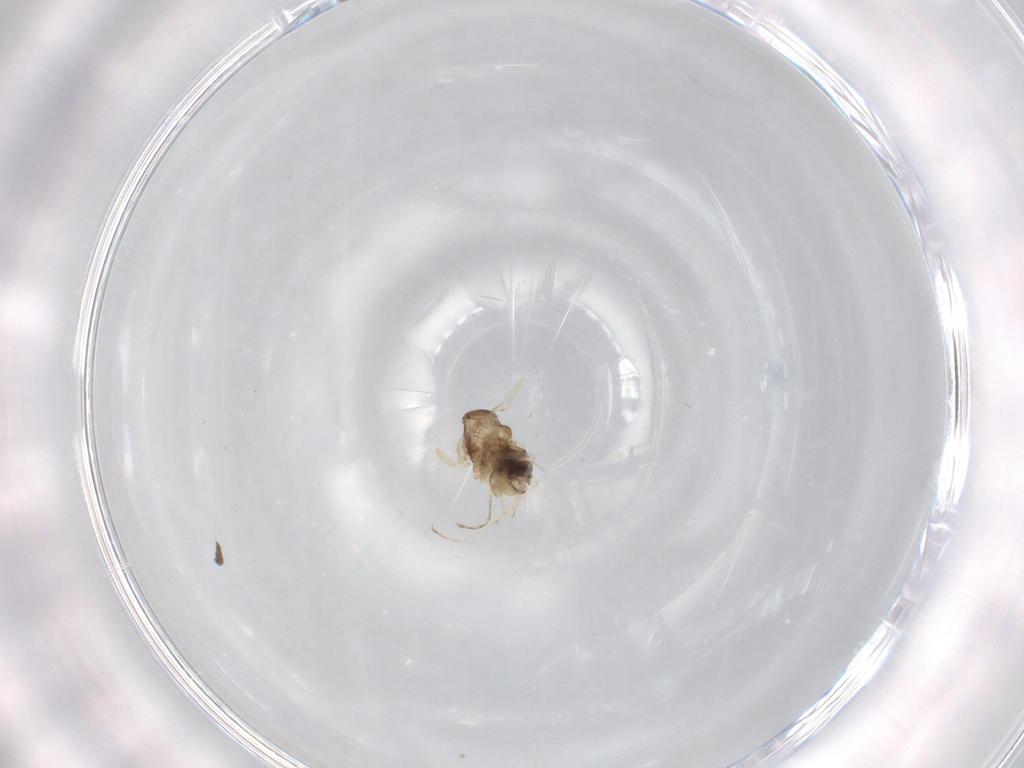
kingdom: Animalia
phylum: Arthropoda
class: Insecta
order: Diptera
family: Cecidomyiidae
